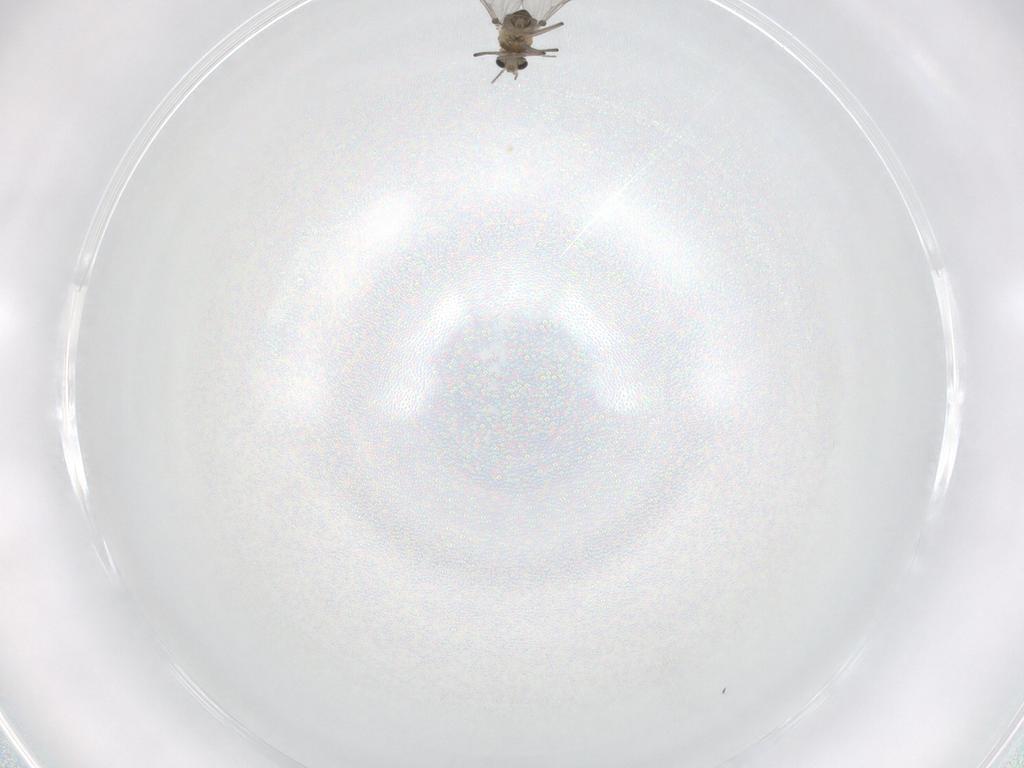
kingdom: Animalia
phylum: Arthropoda
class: Insecta
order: Diptera
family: Chironomidae
